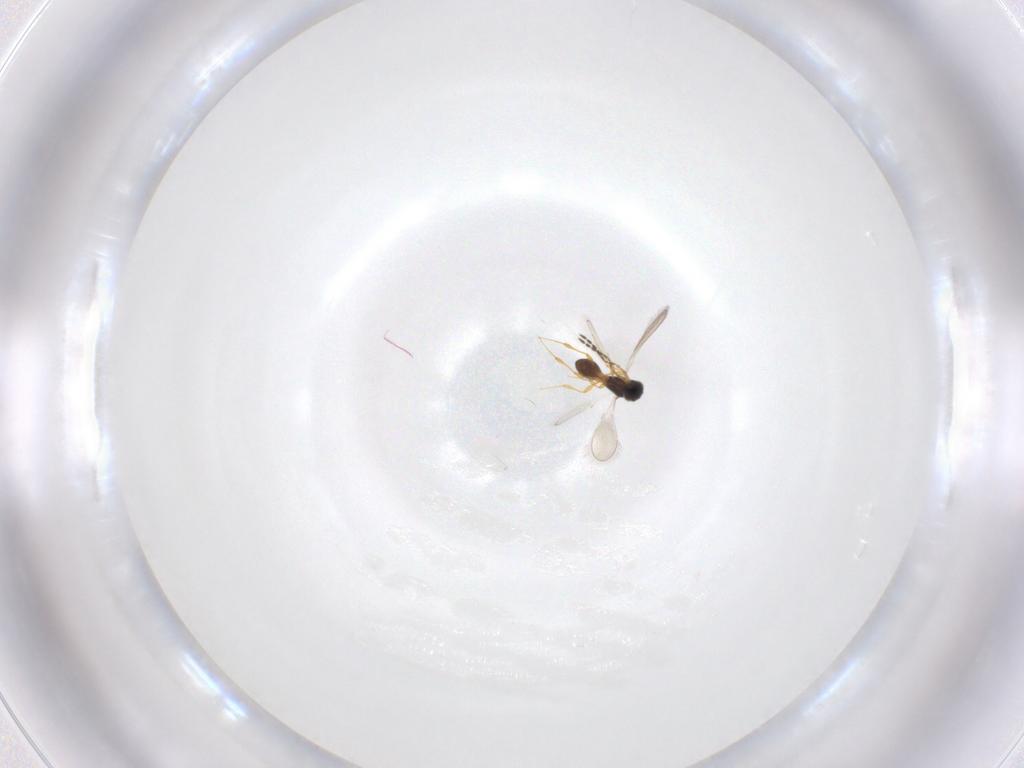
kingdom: Animalia
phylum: Arthropoda
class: Insecta
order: Hymenoptera
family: Platygastridae
